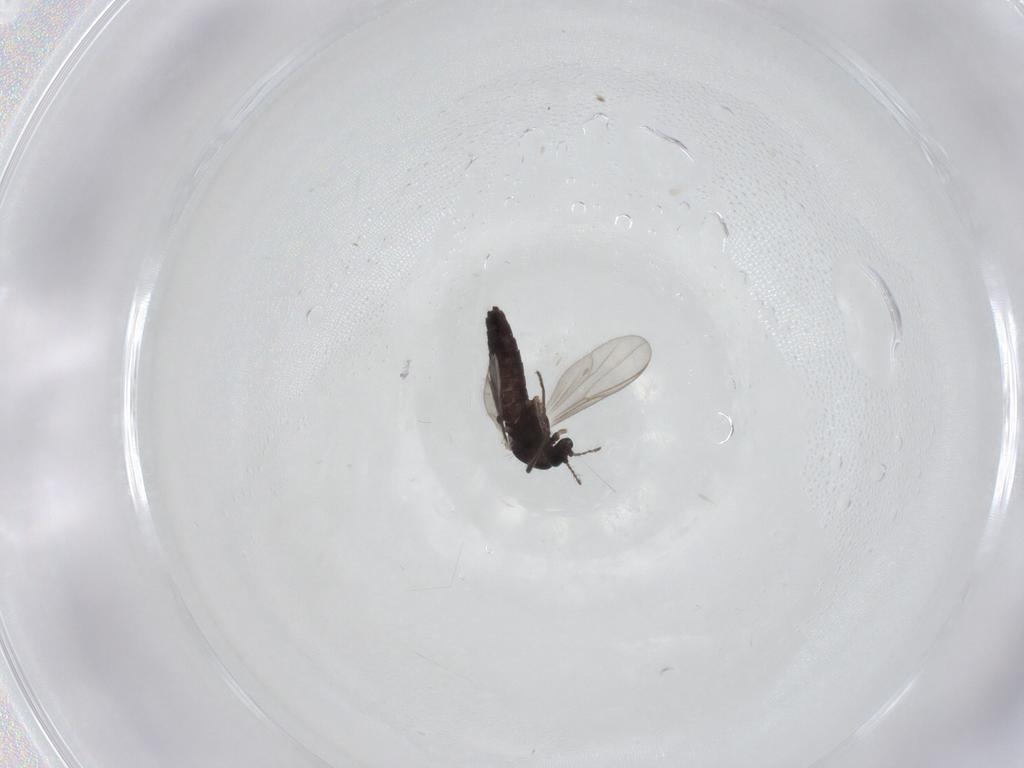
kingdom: Animalia
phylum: Arthropoda
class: Insecta
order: Diptera
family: Chironomidae
